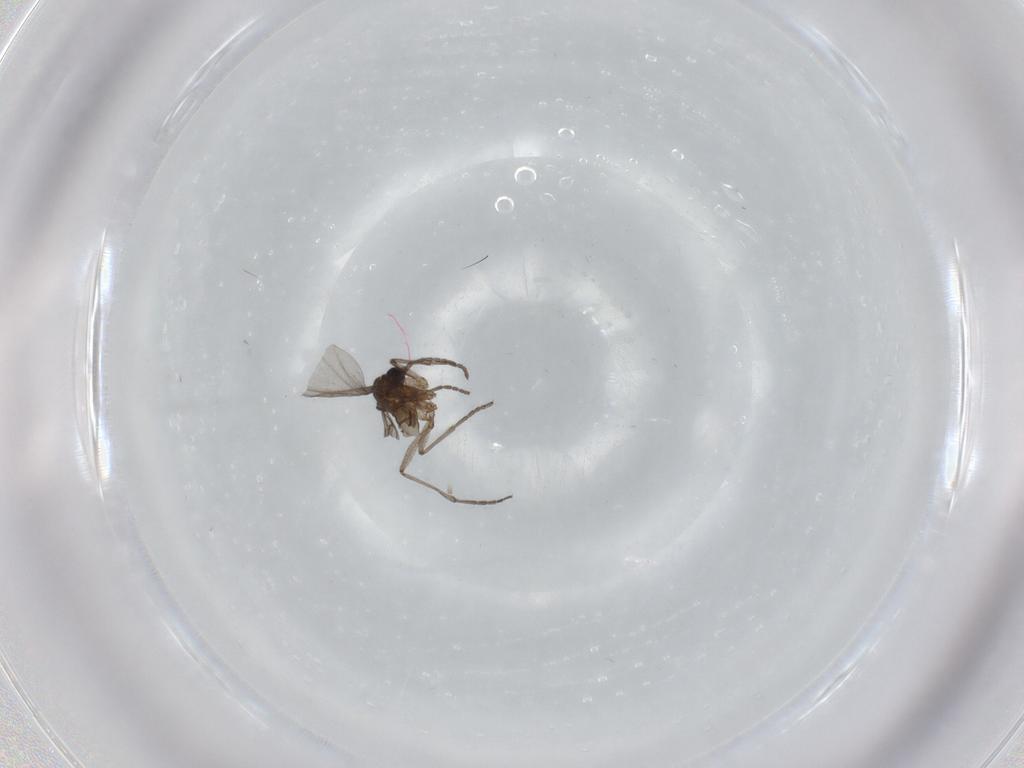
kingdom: Animalia
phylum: Arthropoda
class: Insecta
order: Diptera
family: Sciaridae
